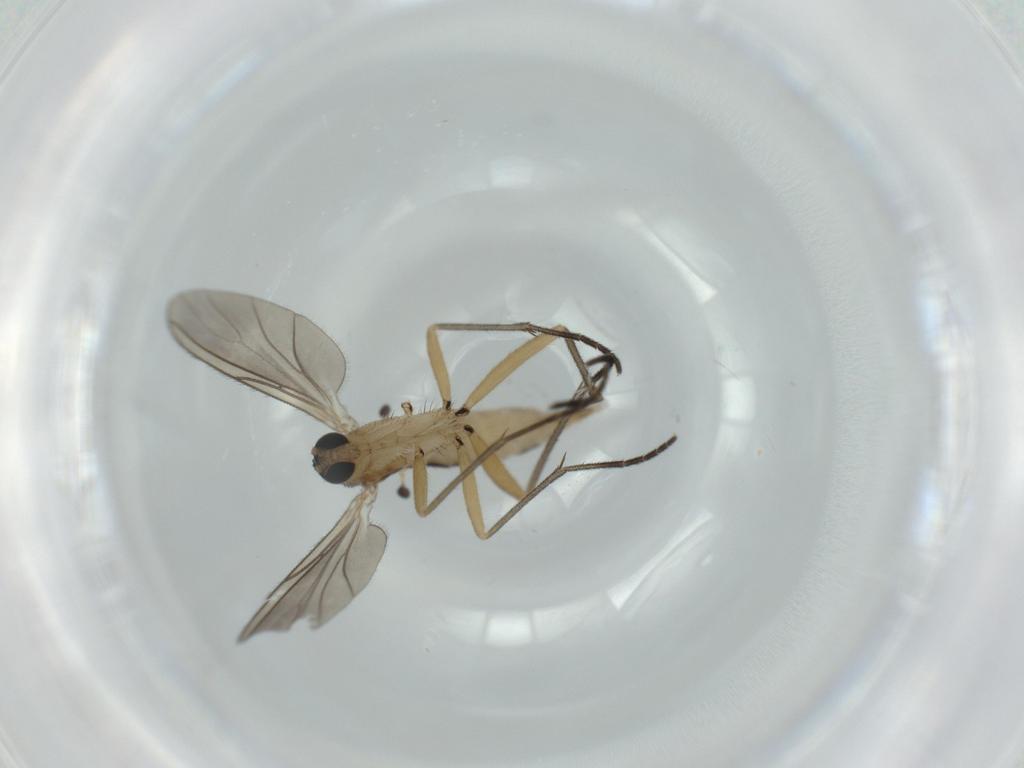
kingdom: Animalia
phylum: Arthropoda
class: Insecta
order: Diptera
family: Sciaridae
